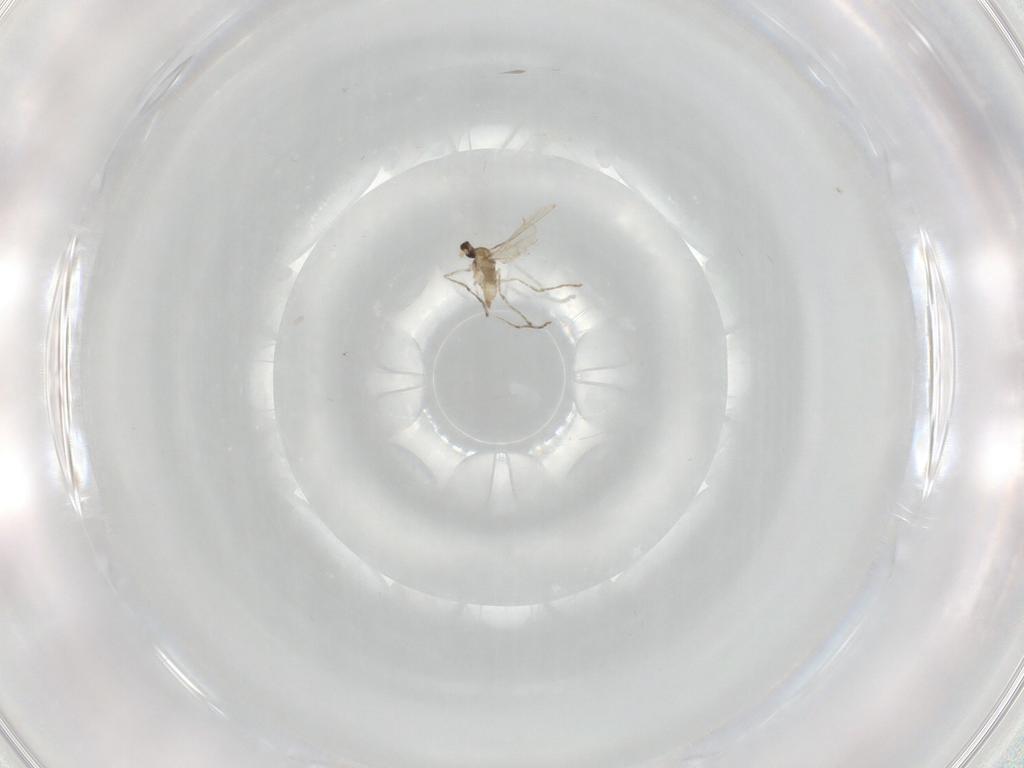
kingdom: Animalia
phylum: Arthropoda
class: Insecta
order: Diptera
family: Cecidomyiidae
